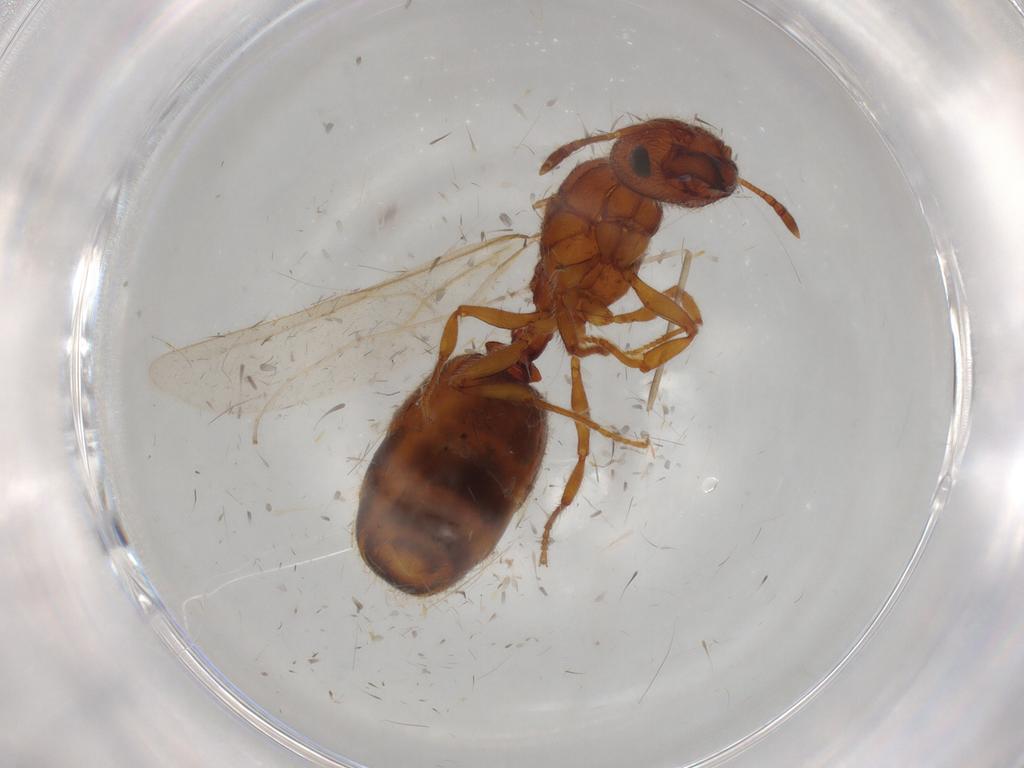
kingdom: Animalia
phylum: Arthropoda
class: Insecta
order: Hymenoptera
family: Formicidae
